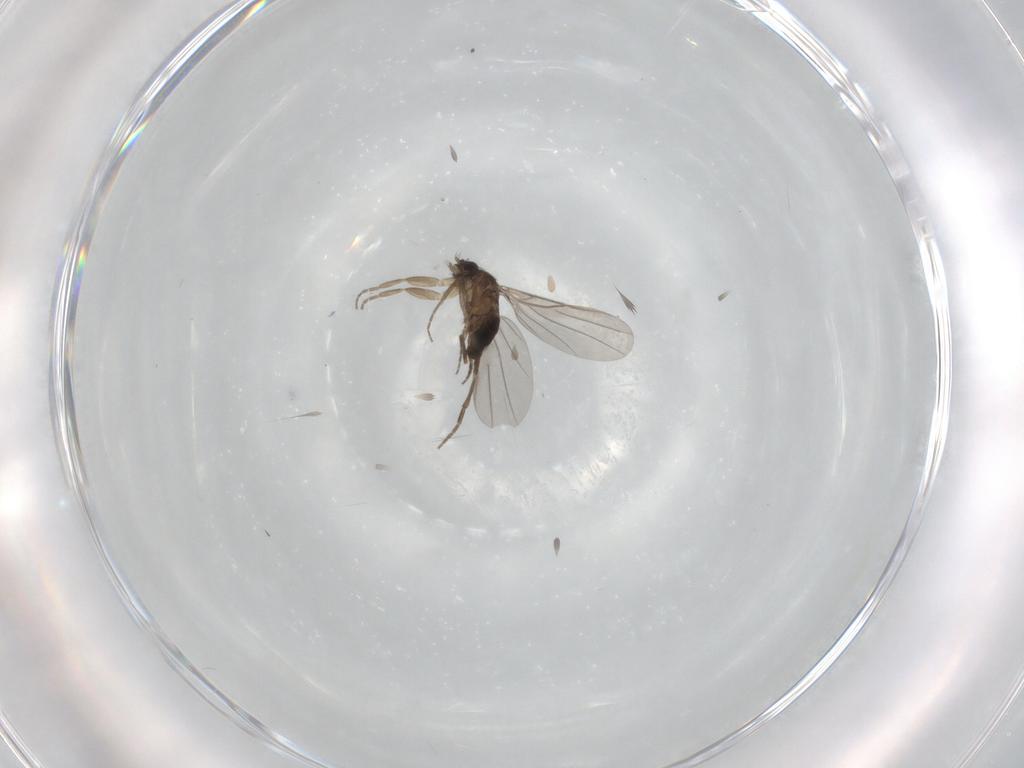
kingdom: Animalia
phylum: Arthropoda
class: Insecta
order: Diptera
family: Phoridae
